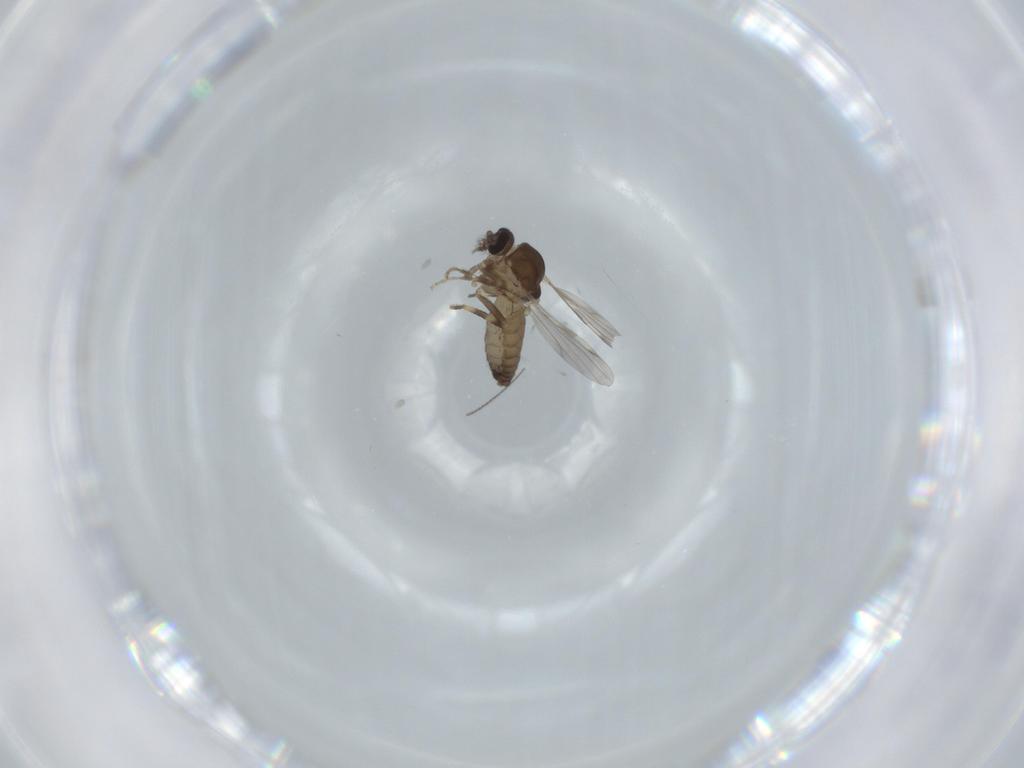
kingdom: Animalia
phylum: Arthropoda
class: Insecta
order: Diptera
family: Ceratopogonidae
